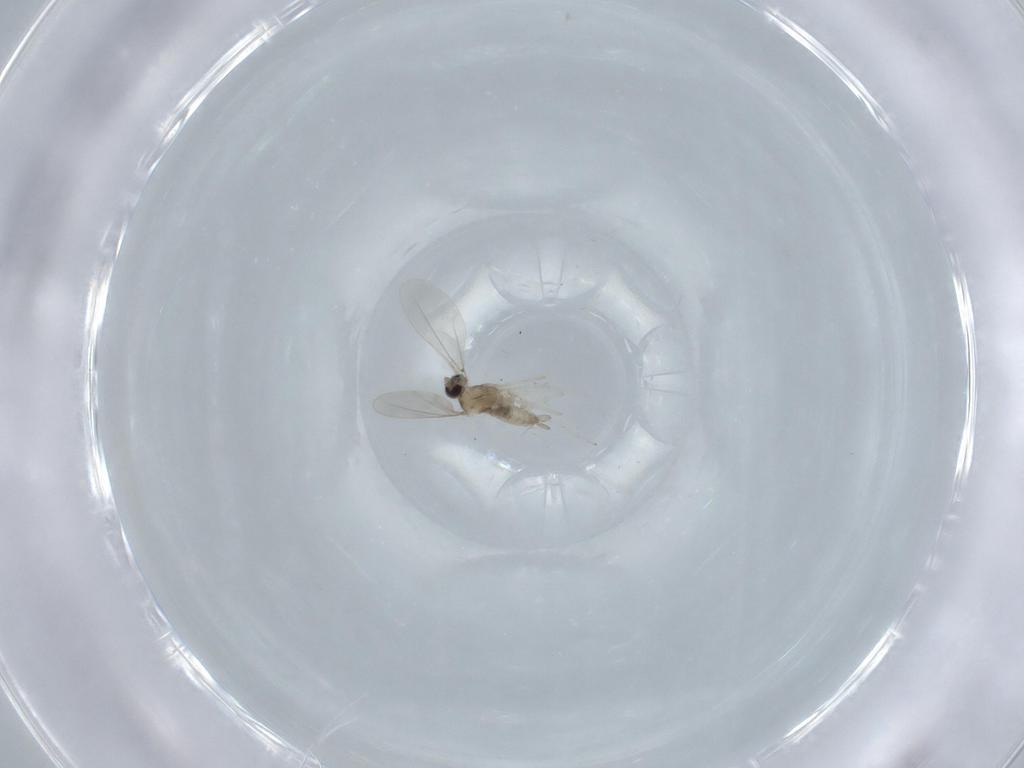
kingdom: Animalia
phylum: Arthropoda
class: Insecta
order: Diptera
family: Cecidomyiidae
